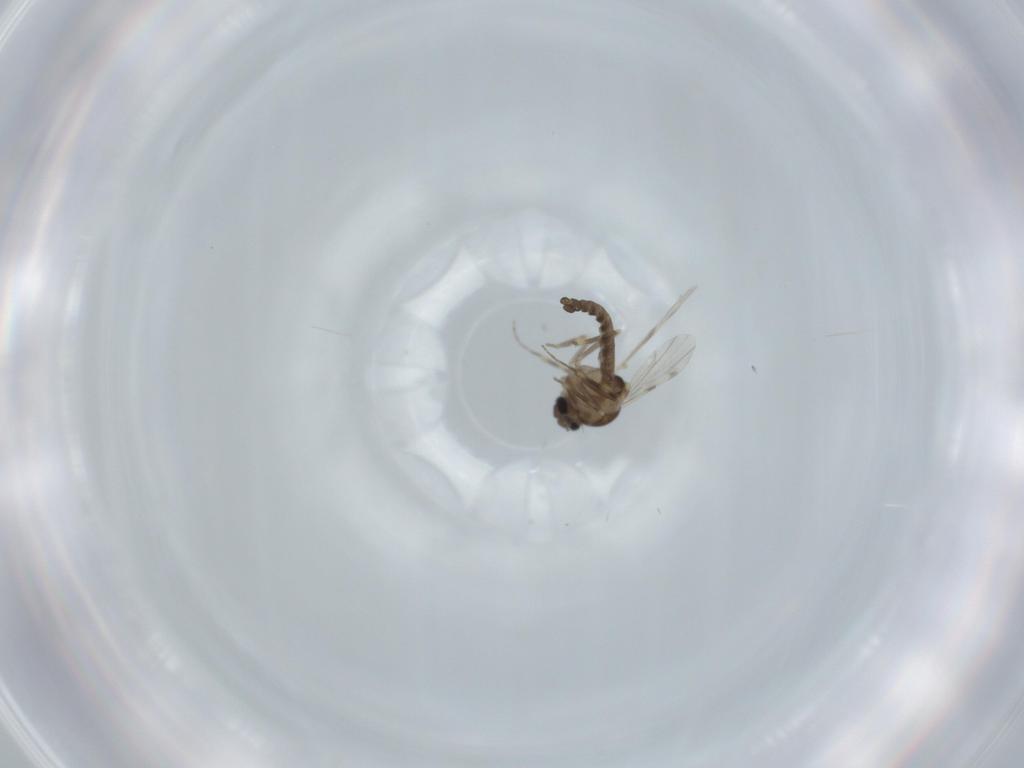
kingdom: Animalia
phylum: Arthropoda
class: Insecta
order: Diptera
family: Ceratopogonidae
